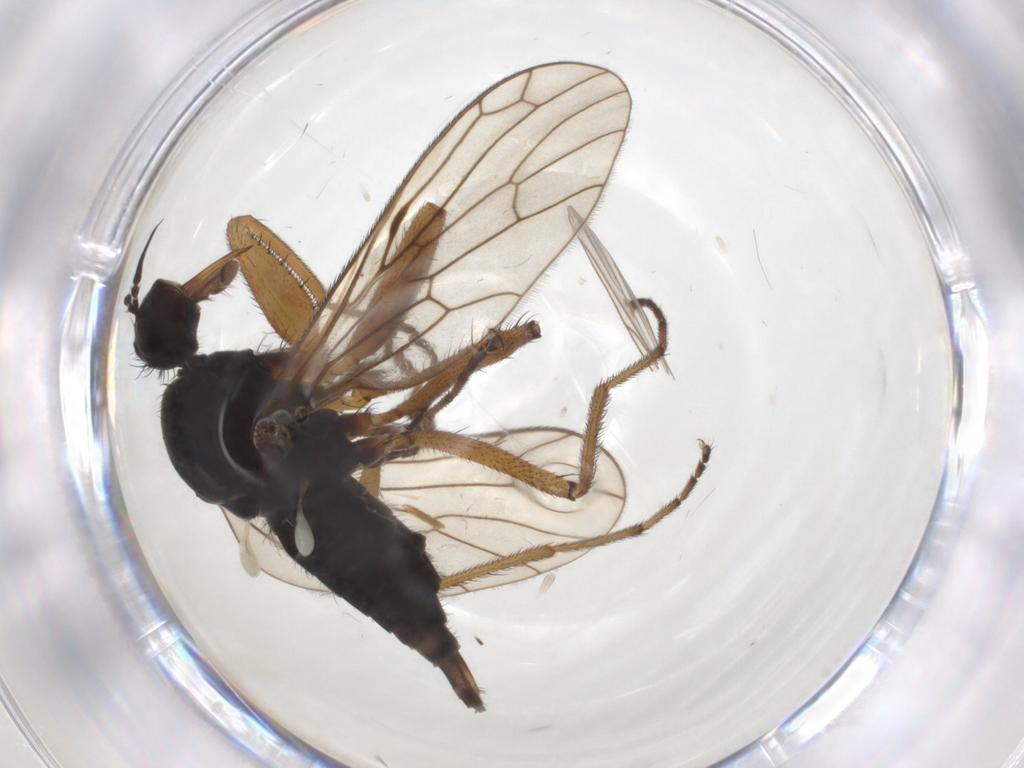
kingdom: Animalia
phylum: Arthropoda
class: Insecta
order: Diptera
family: Empididae
